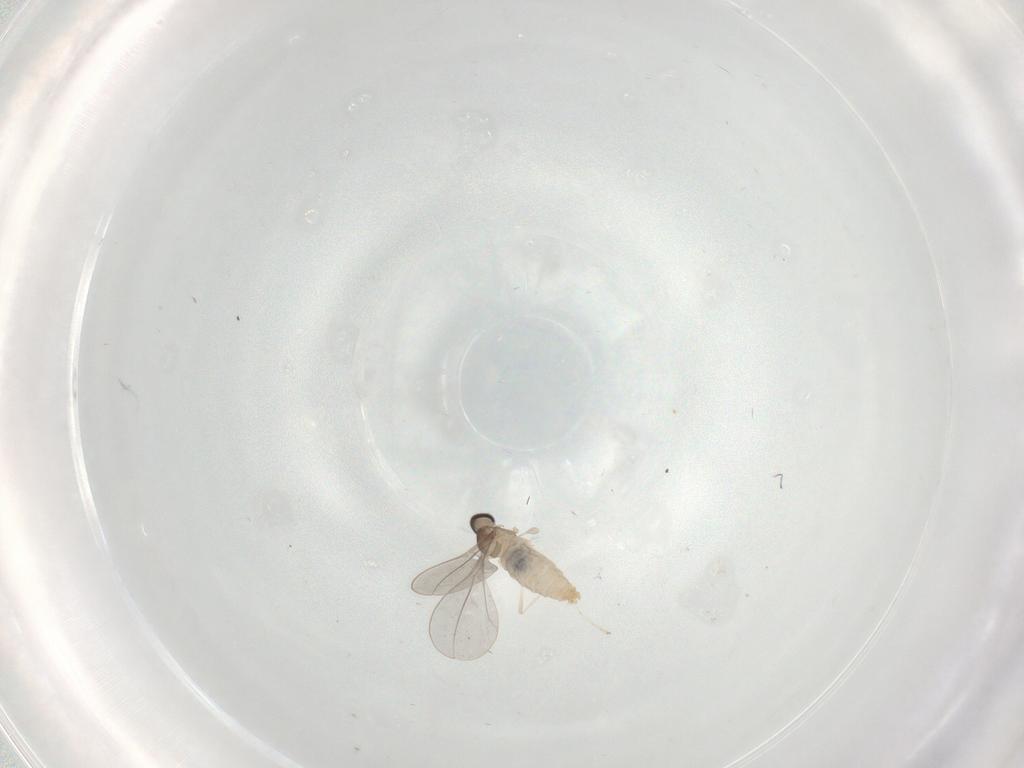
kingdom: Animalia
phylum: Arthropoda
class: Insecta
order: Diptera
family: Cecidomyiidae
